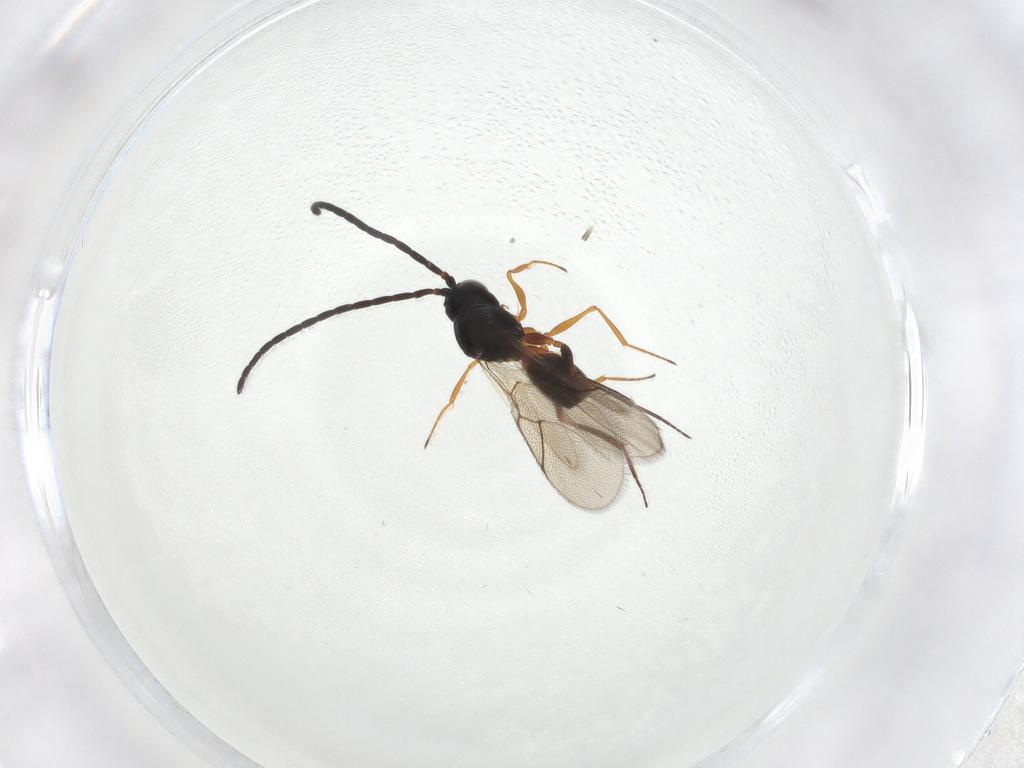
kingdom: Animalia
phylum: Arthropoda
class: Insecta
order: Hymenoptera
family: Figitidae
